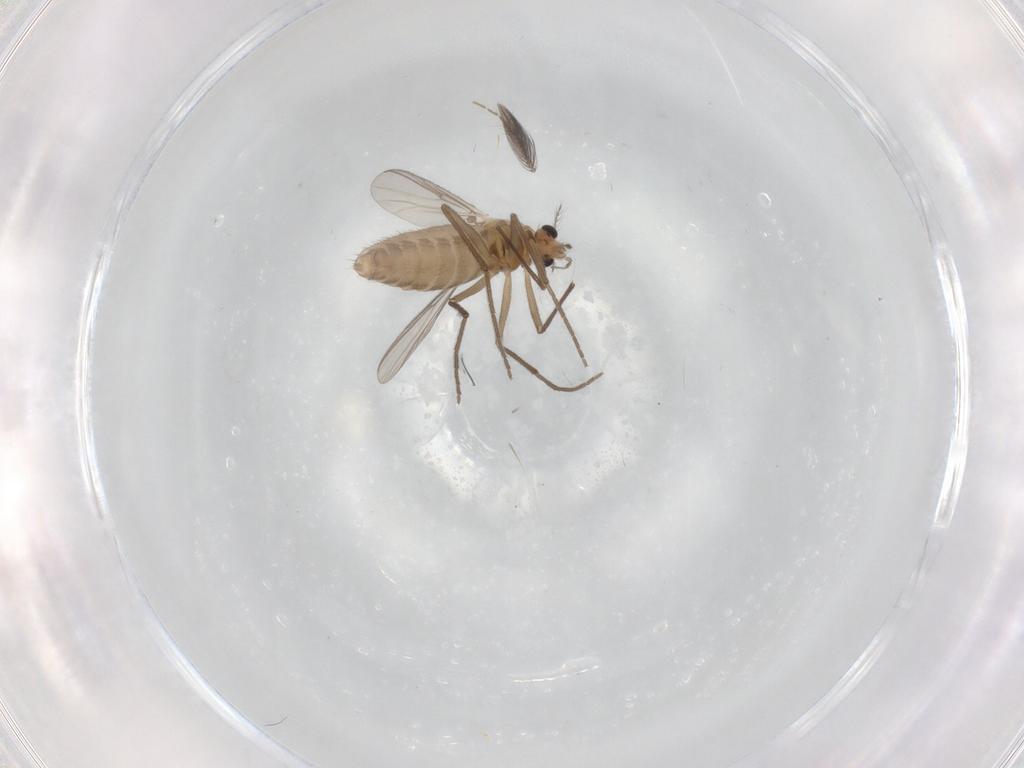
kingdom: Animalia
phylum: Arthropoda
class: Insecta
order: Diptera
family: Chironomidae
